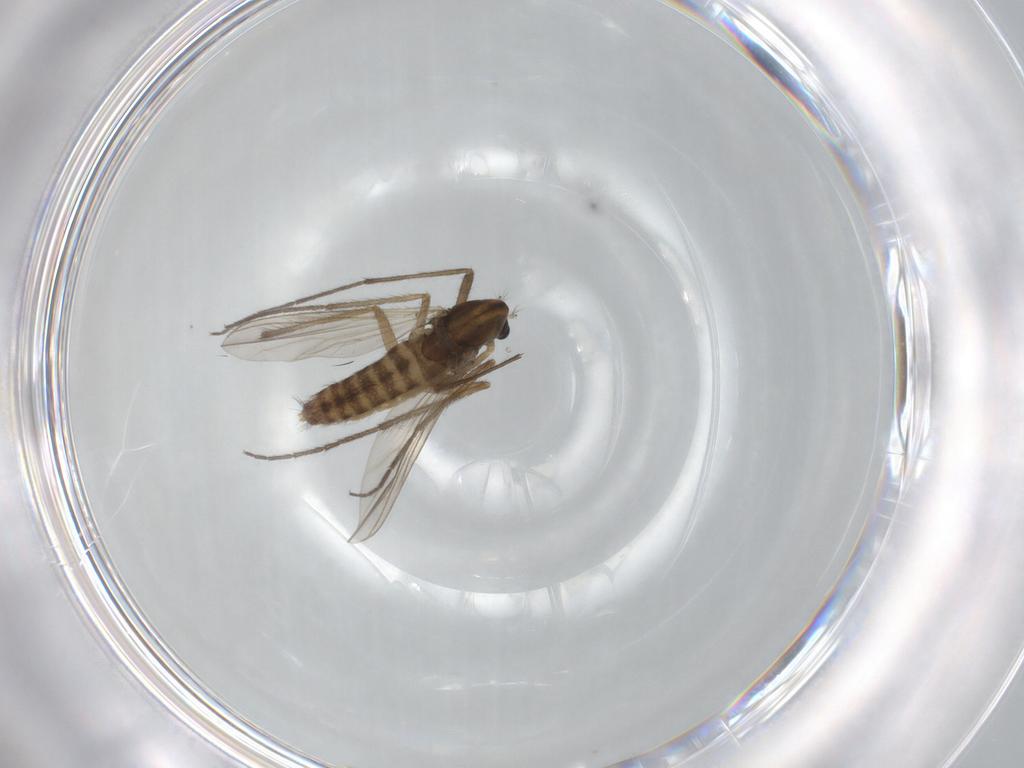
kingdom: Animalia
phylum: Arthropoda
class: Insecta
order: Diptera
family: Chironomidae
